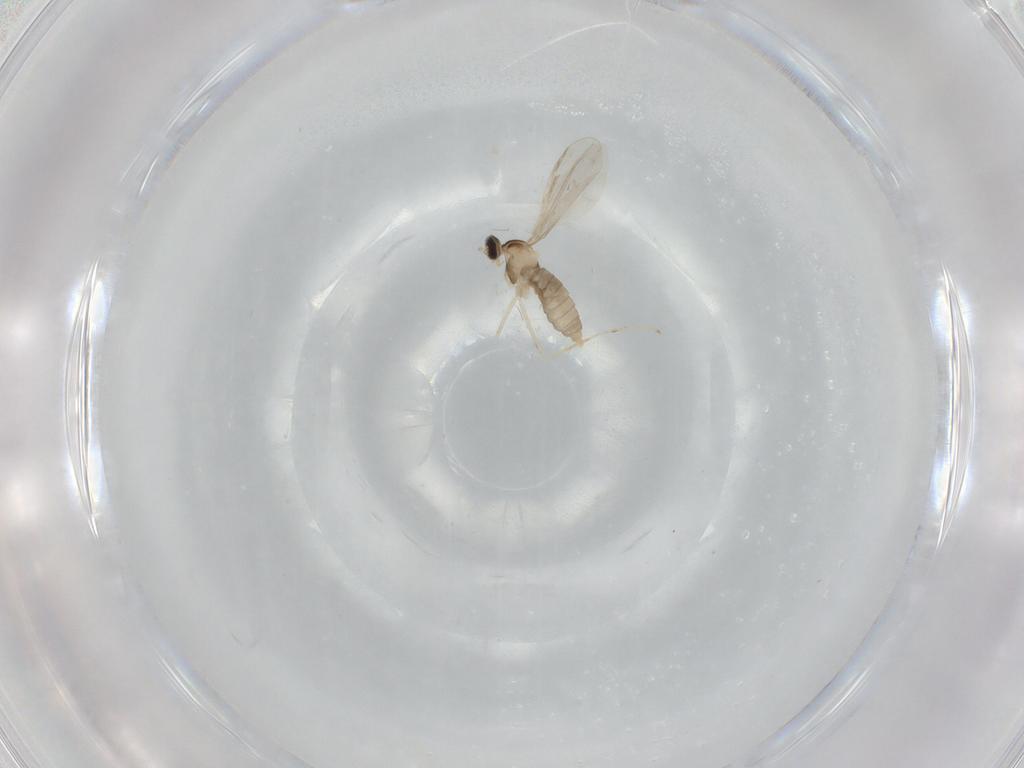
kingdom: Animalia
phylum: Arthropoda
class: Insecta
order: Diptera
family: Cecidomyiidae
